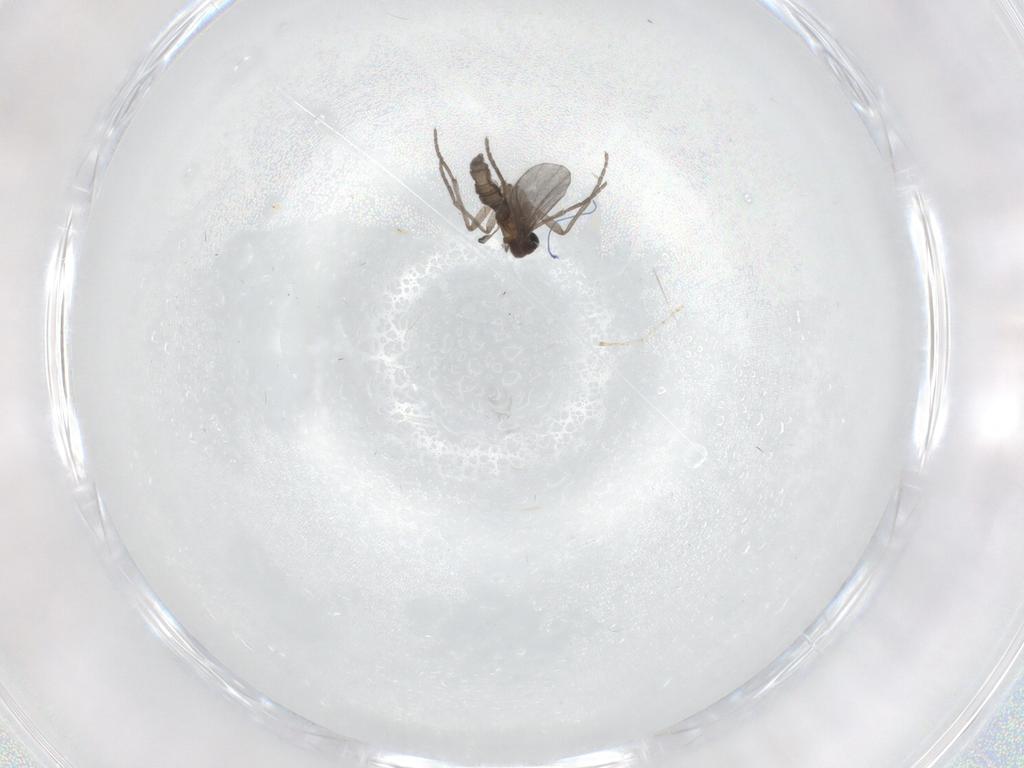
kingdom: Animalia
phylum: Arthropoda
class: Insecta
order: Diptera
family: Sciaridae
